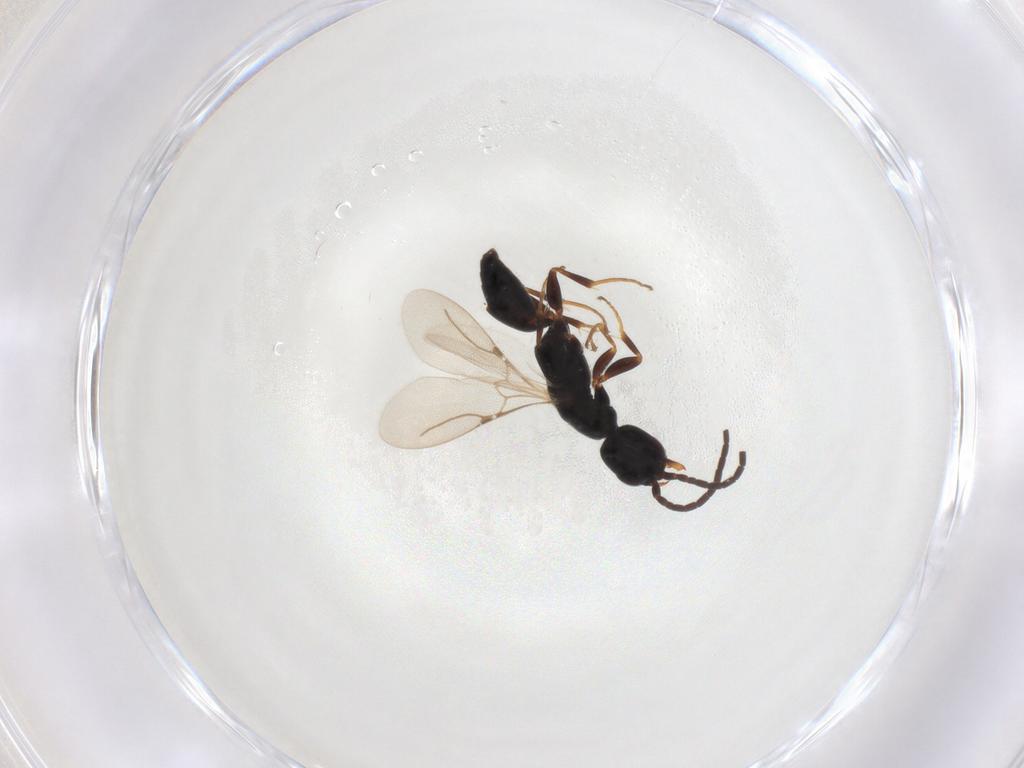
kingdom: Animalia
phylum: Arthropoda
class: Insecta
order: Hymenoptera
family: Bethylidae
